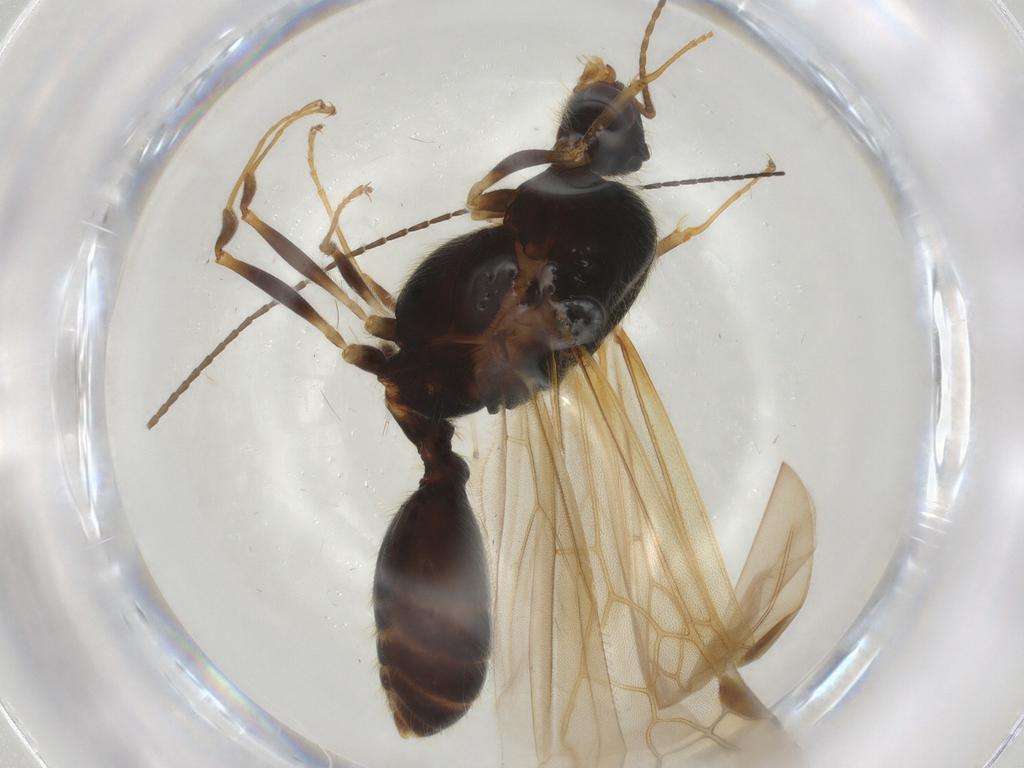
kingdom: Animalia
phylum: Arthropoda
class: Insecta
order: Hymenoptera
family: Formicidae
